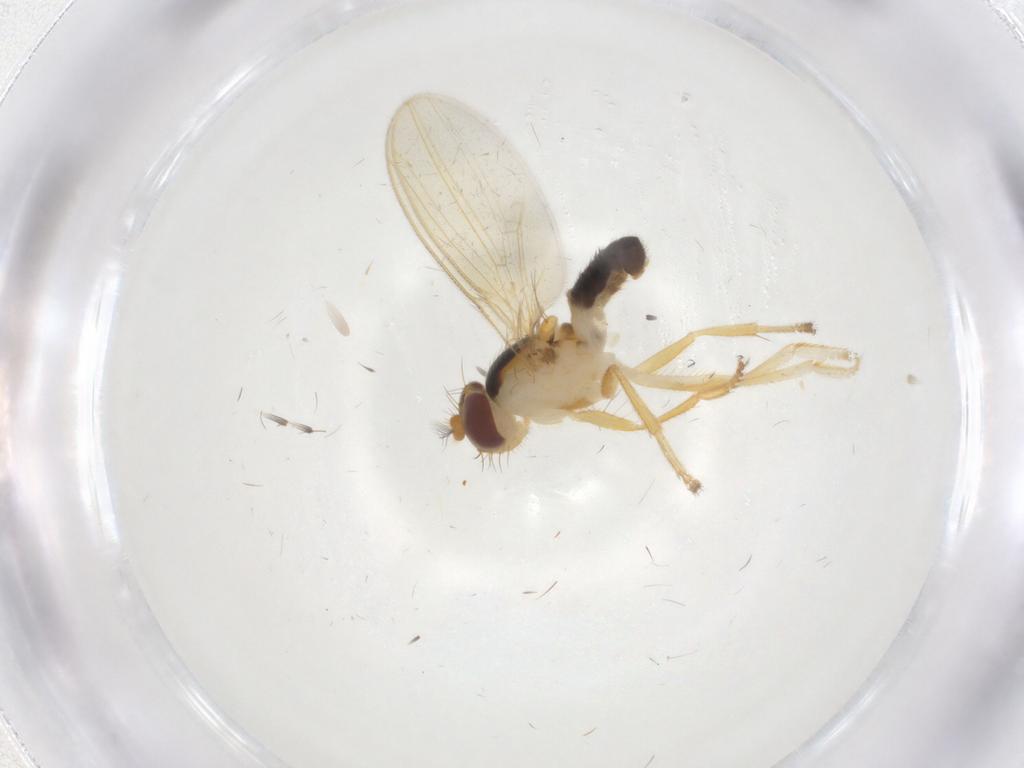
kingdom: Animalia
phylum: Arthropoda
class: Insecta
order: Diptera
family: Periscelididae
